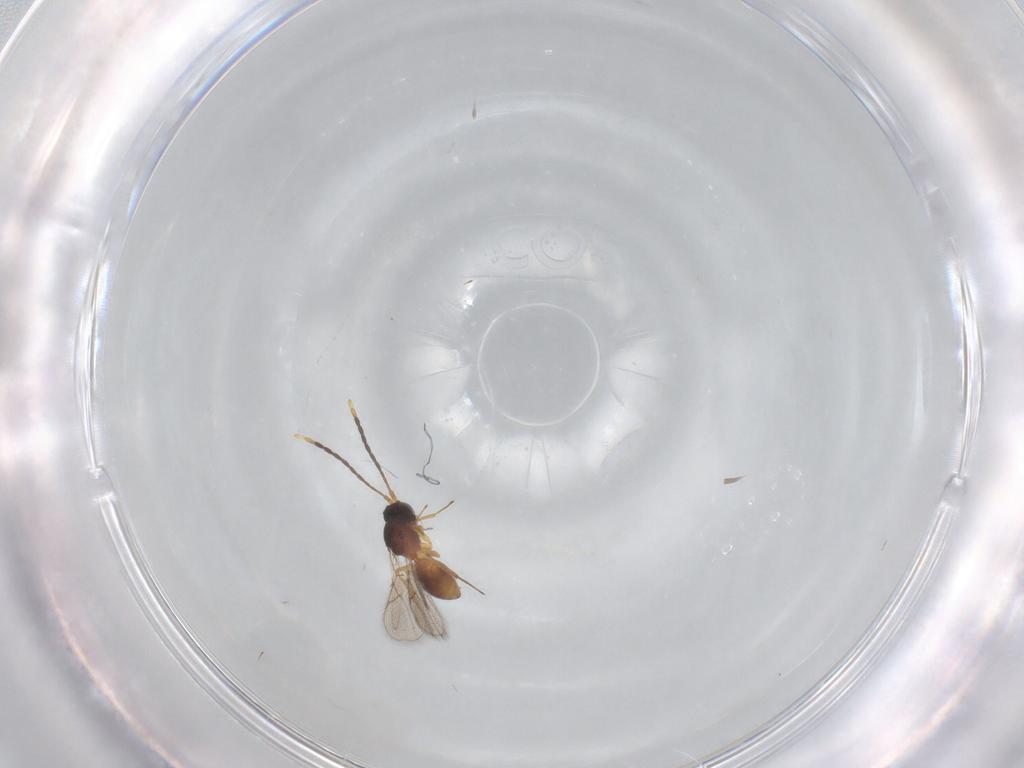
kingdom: Animalia
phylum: Arthropoda
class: Insecta
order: Hymenoptera
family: Figitidae
